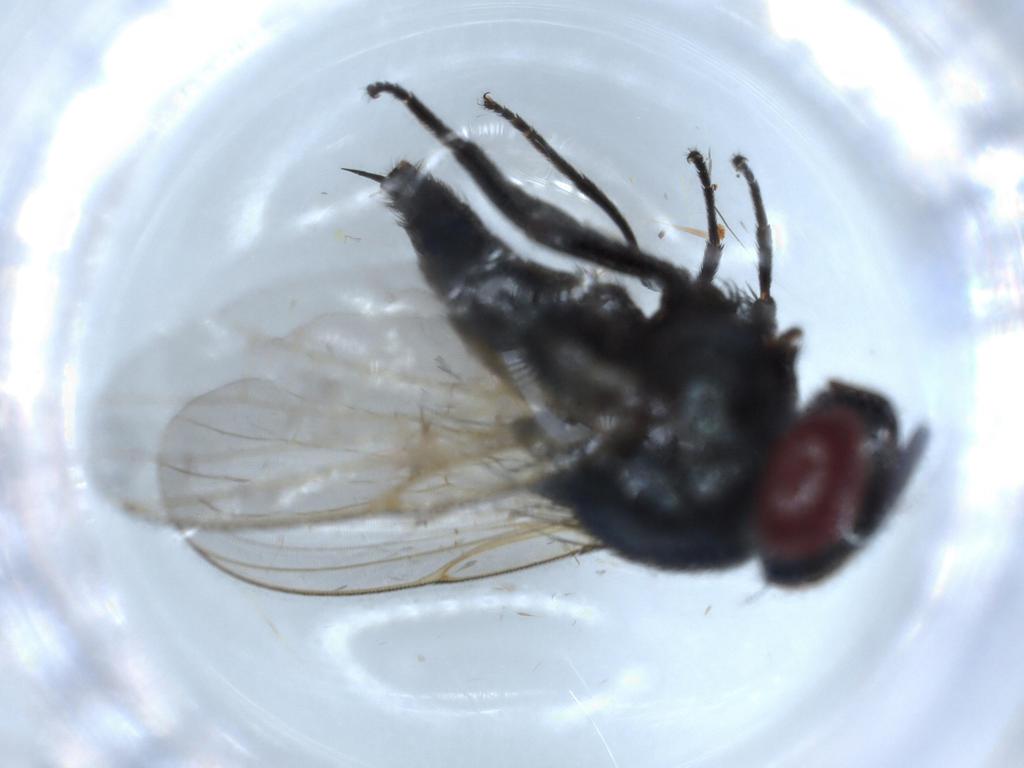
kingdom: Animalia
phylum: Arthropoda
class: Insecta
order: Diptera
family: Lonchaeidae
